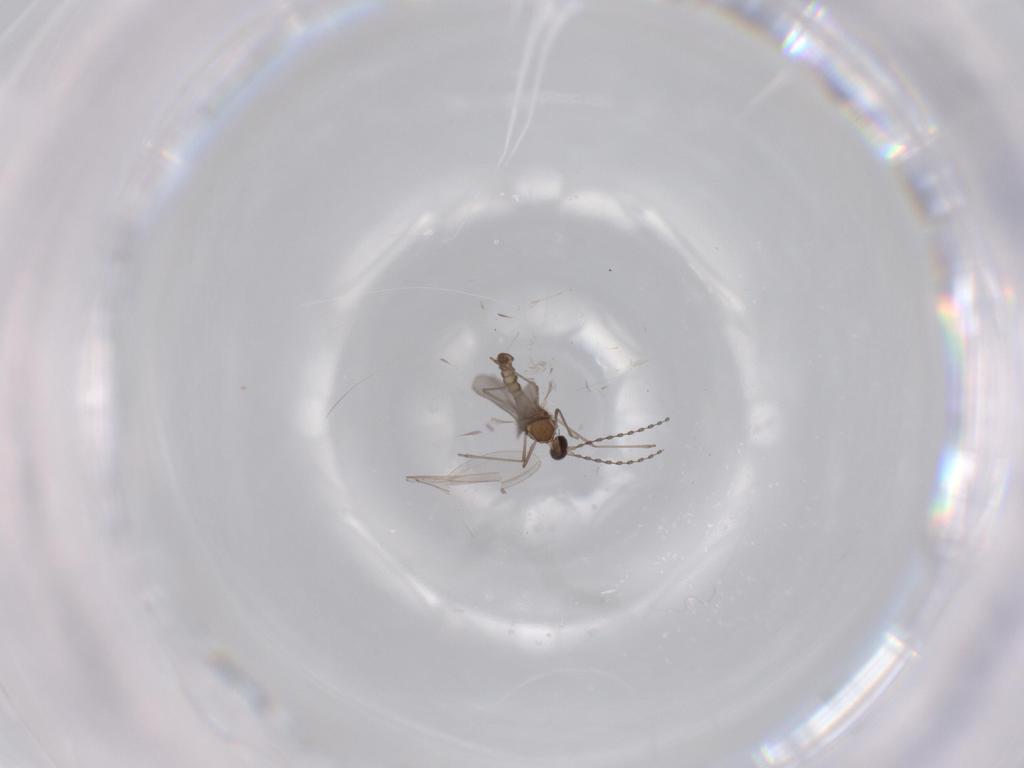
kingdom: Animalia
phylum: Arthropoda
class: Insecta
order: Diptera
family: Cecidomyiidae
